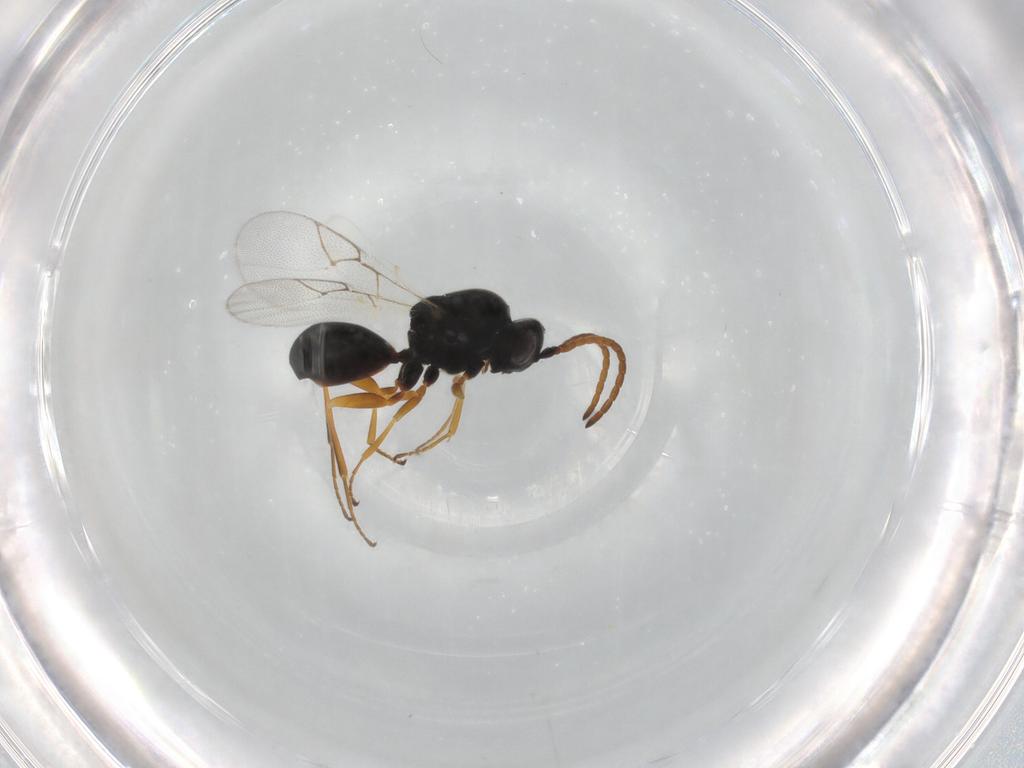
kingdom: Animalia
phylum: Arthropoda
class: Insecta
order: Hymenoptera
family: Figitidae
